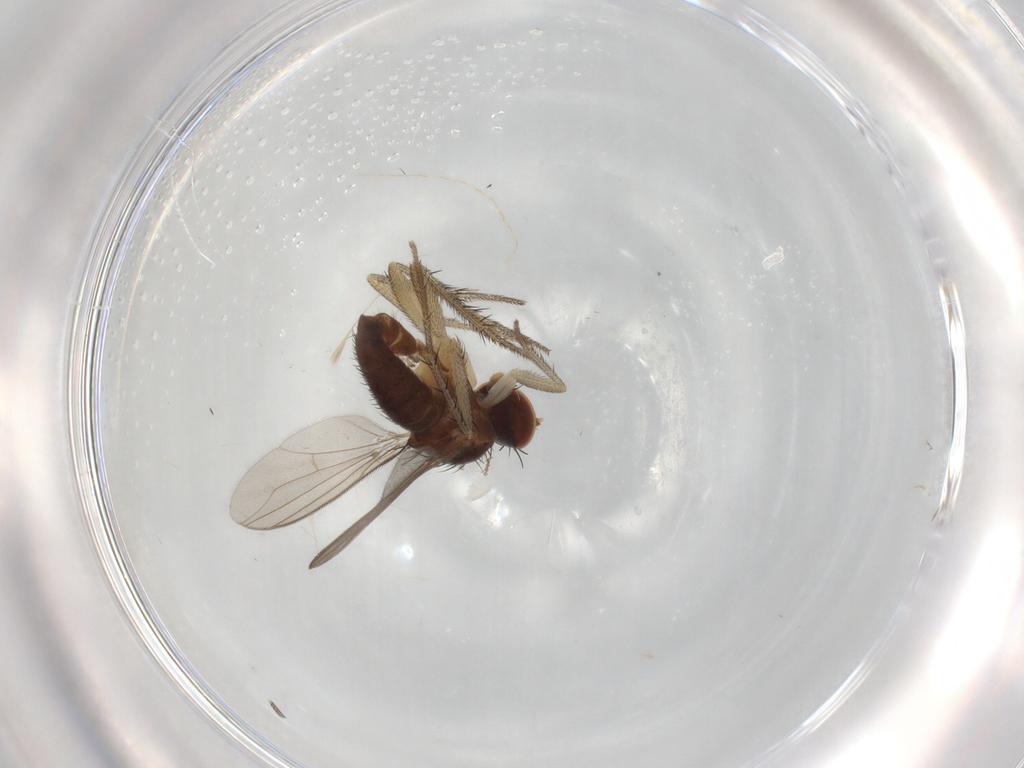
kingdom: Animalia
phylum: Arthropoda
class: Insecta
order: Diptera
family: Dolichopodidae
